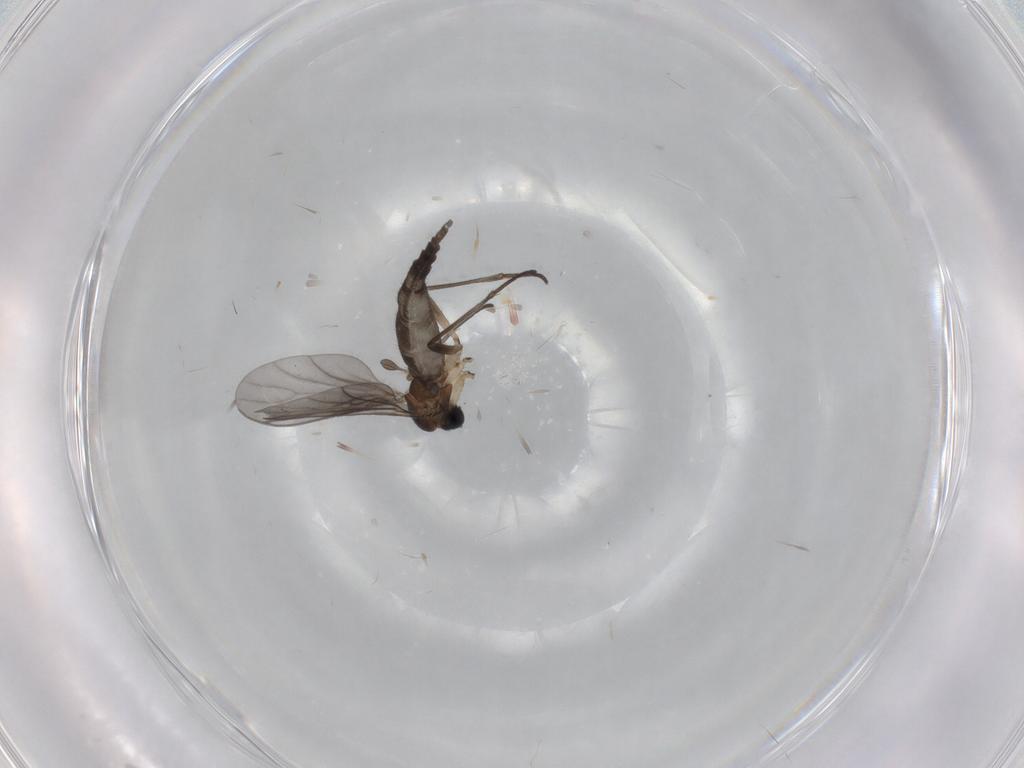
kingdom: Animalia
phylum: Arthropoda
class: Insecta
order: Diptera
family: Sciaridae
